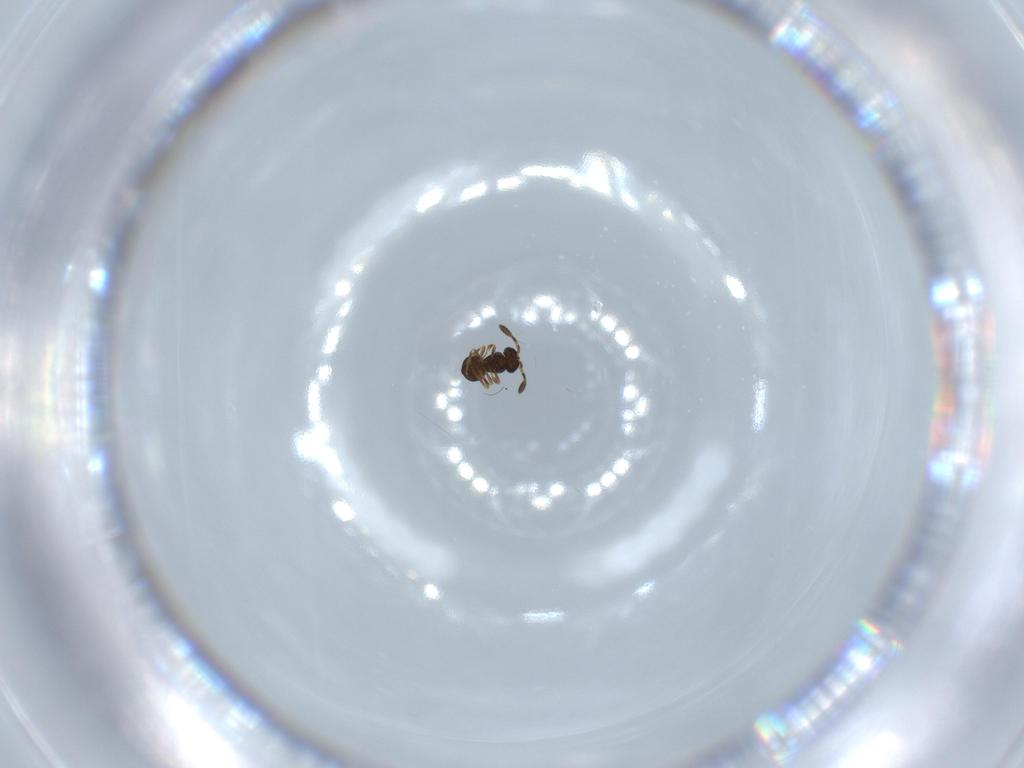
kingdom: Animalia
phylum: Arthropoda
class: Insecta
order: Hymenoptera
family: Scelionidae
